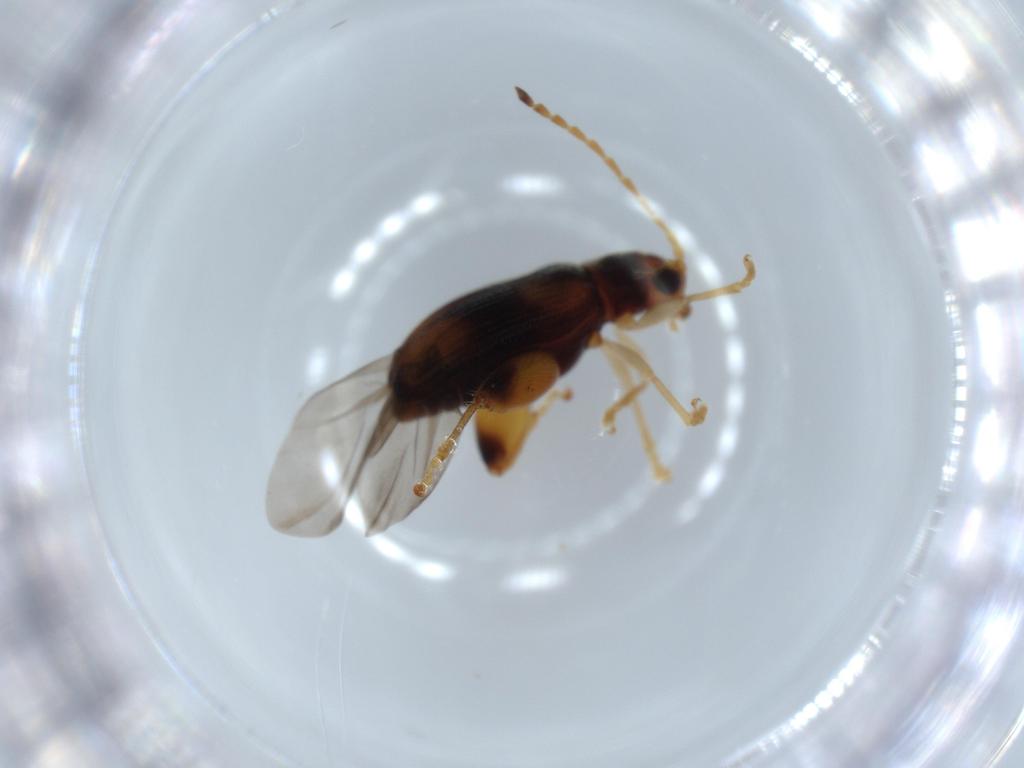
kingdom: Animalia
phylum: Arthropoda
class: Insecta
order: Coleoptera
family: Chrysomelidae
